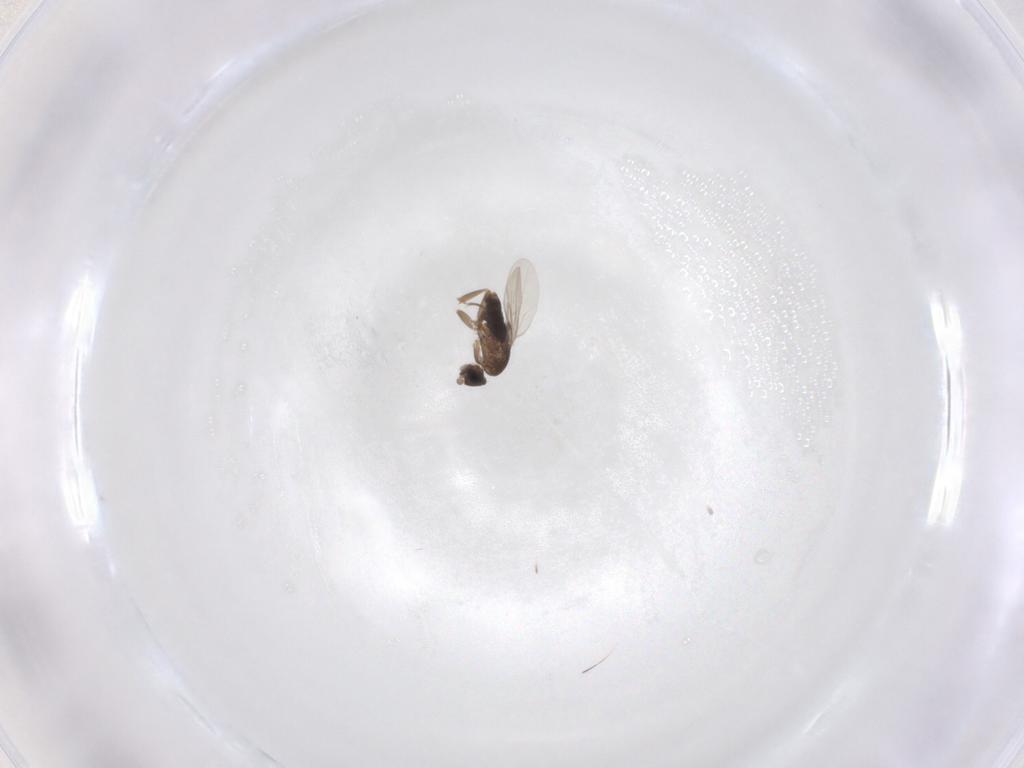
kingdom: Animalia
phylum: Arthropoda
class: Insecta
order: Diptera
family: Phoridae
